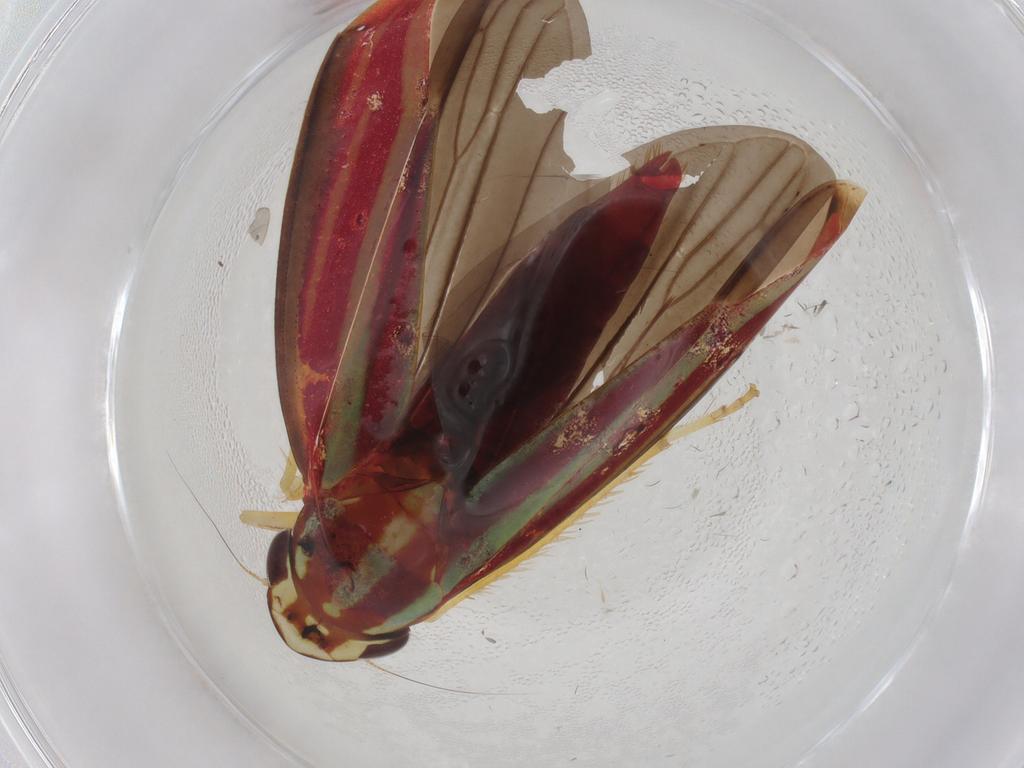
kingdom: Animalia
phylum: Arthropoda
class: Insecta
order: Hemiptera
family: Cicadellidae
